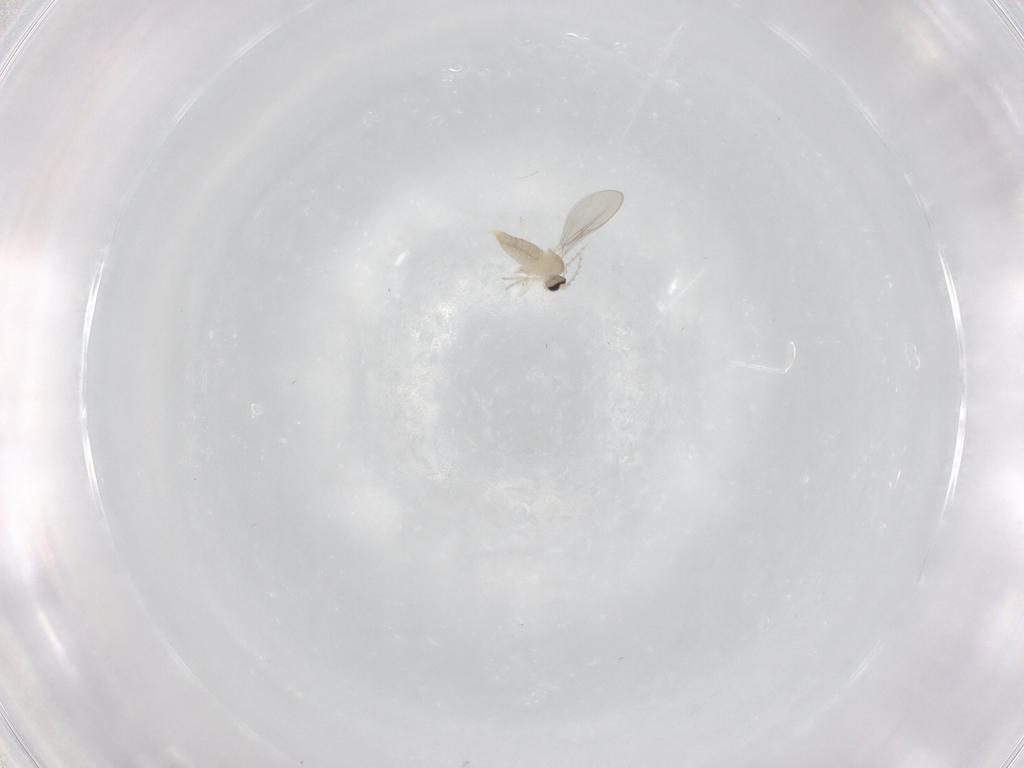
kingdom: Animalia
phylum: Arthropoda
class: Insecta
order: Diptera
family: Cecidomyiidae
